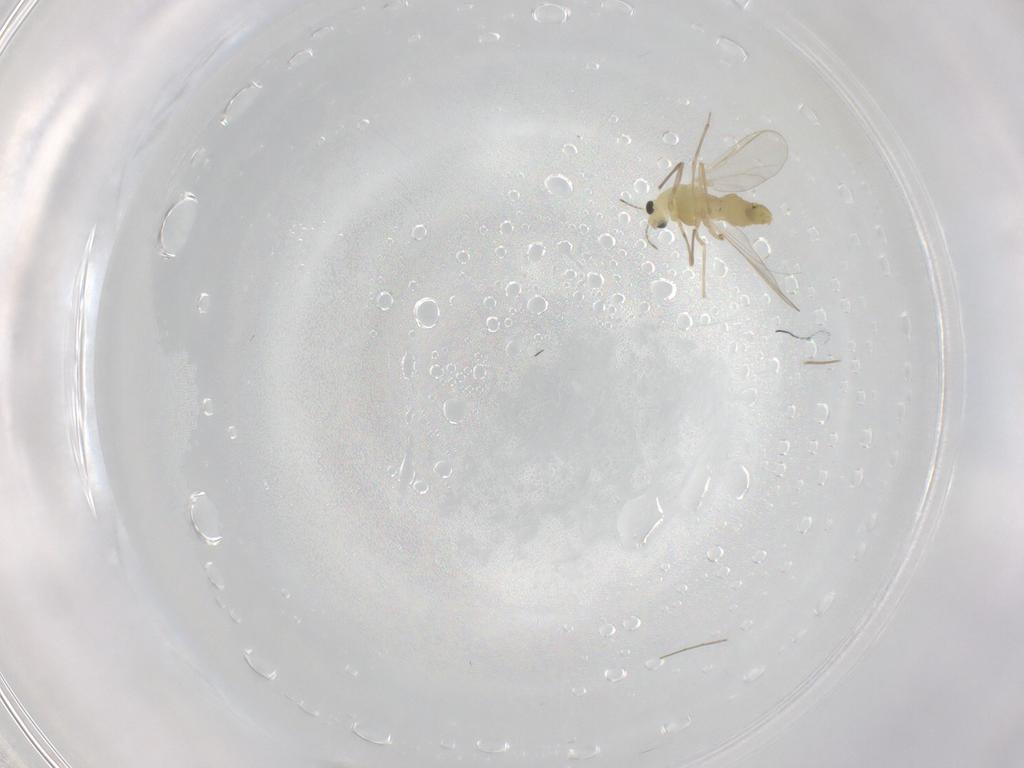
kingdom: Animalia
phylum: Arthropoda
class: Insecta
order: Diptera
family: Chironomidae
